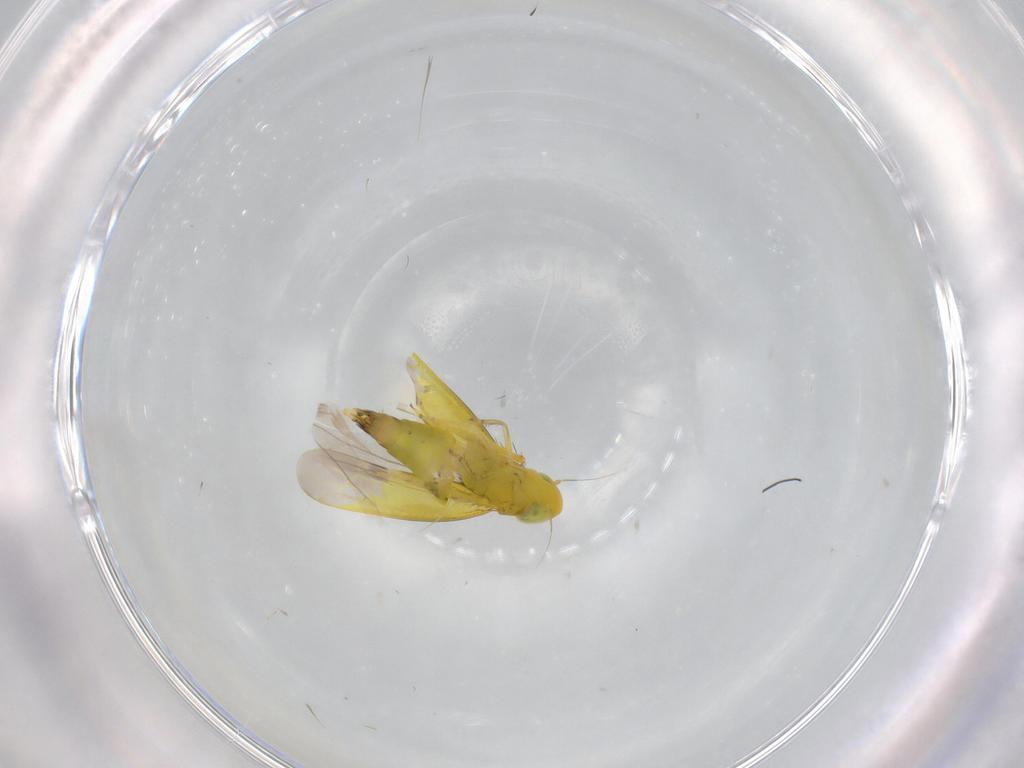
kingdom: Animalia
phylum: Arthropoda
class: Insecta
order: Hemiptera
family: Cicadellidae
